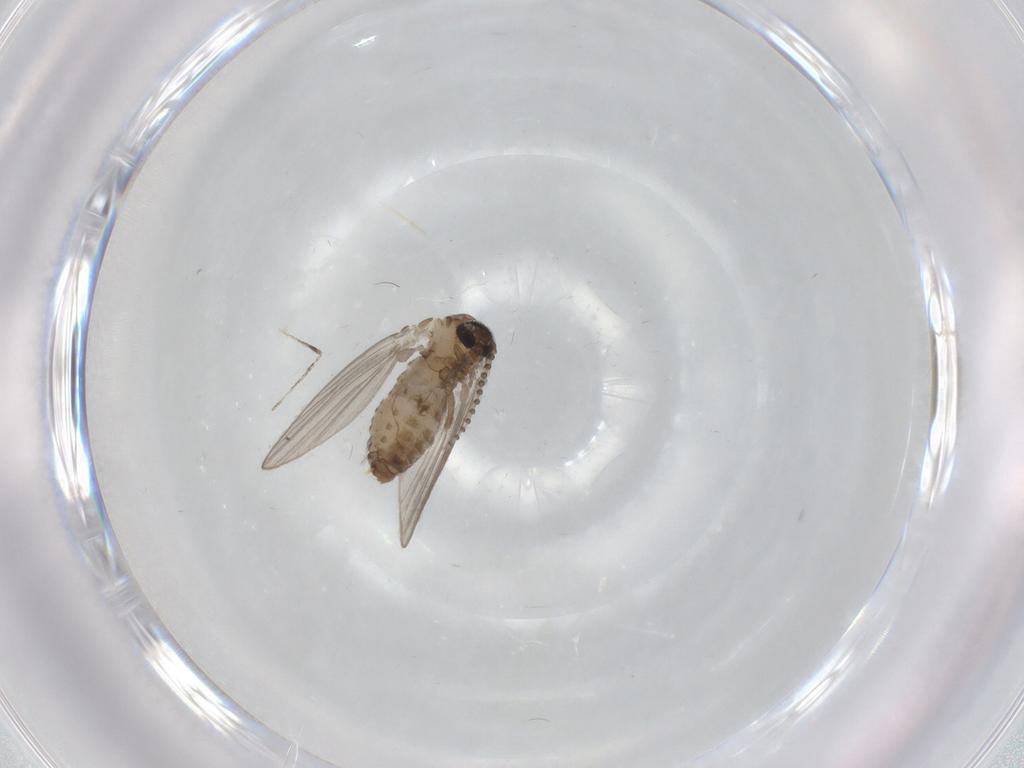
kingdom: Animalia
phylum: Arthropoda
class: Insecta
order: Diptera
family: Psychodidae
